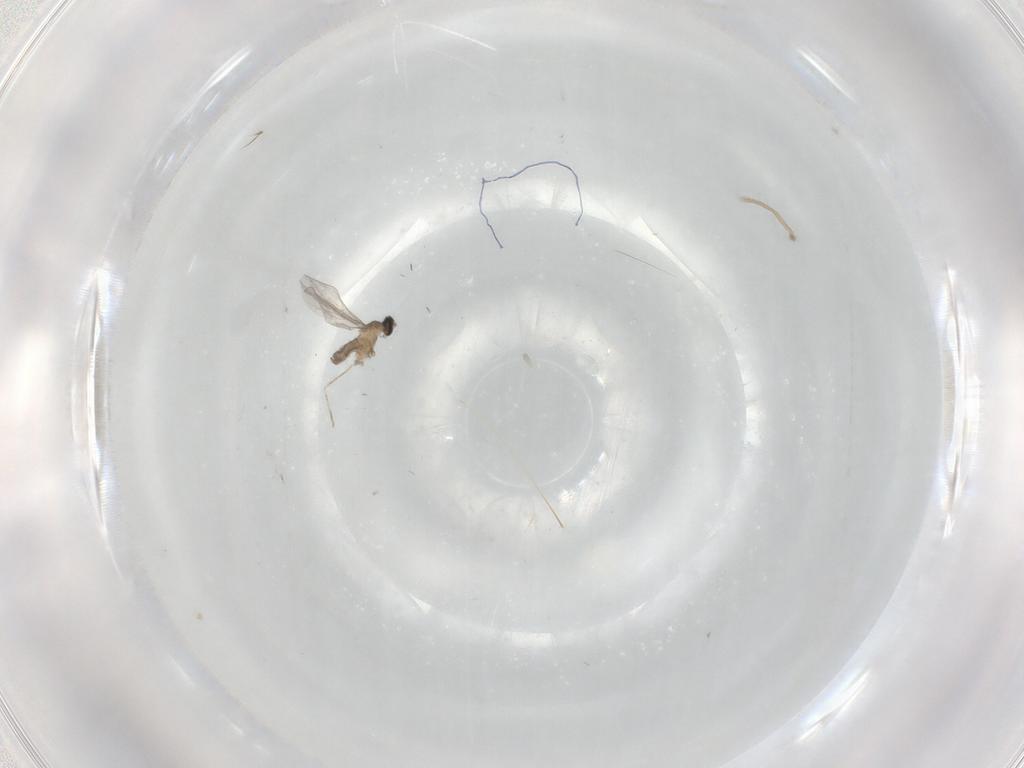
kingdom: Animalia
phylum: Arthropoda
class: Insecta
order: Diptera
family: Cecidomyiidae
